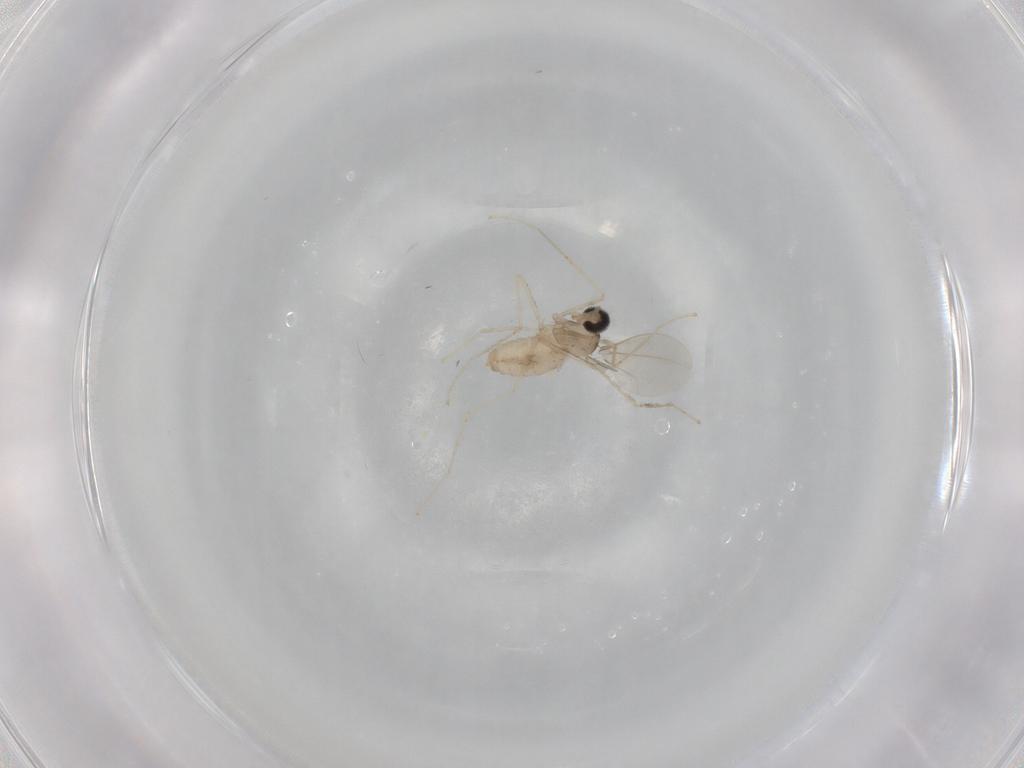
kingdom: Animalia
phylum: Arthropoda
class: Insecta
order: Diptera
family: Cecidomyiidae
